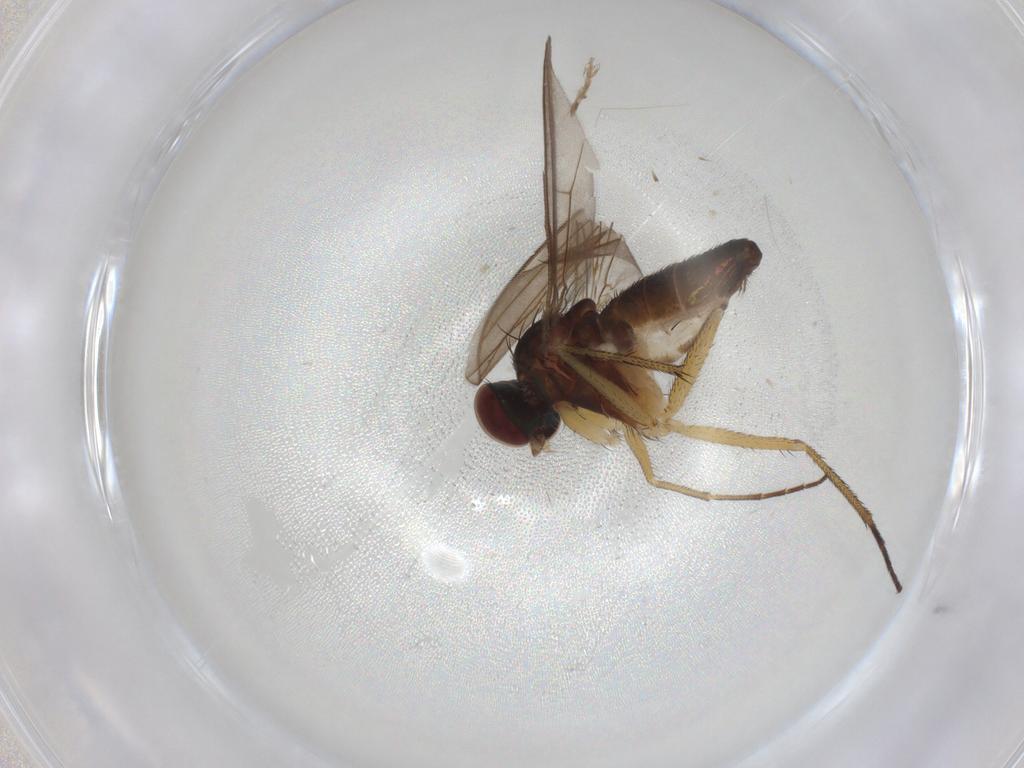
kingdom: Animalia
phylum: Arthropoda
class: Insecta
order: Diptera
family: Dolichopodidae
